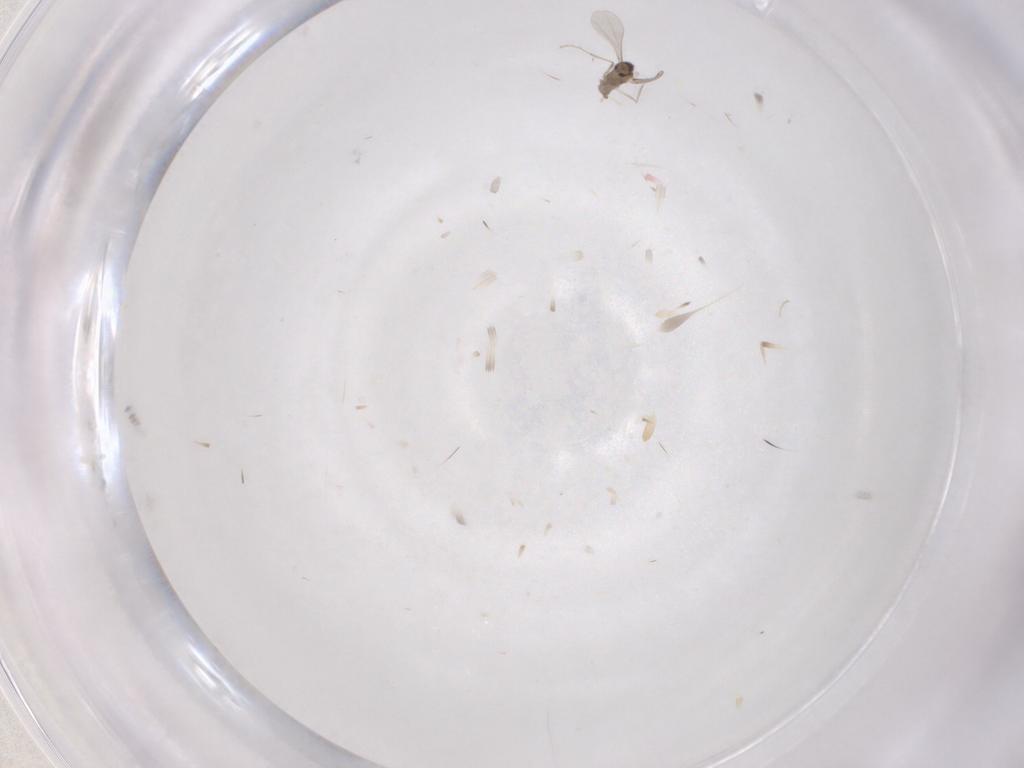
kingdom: Animalia
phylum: Arthropoda
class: Insecta
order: Diptera
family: Cecidomyiidae
